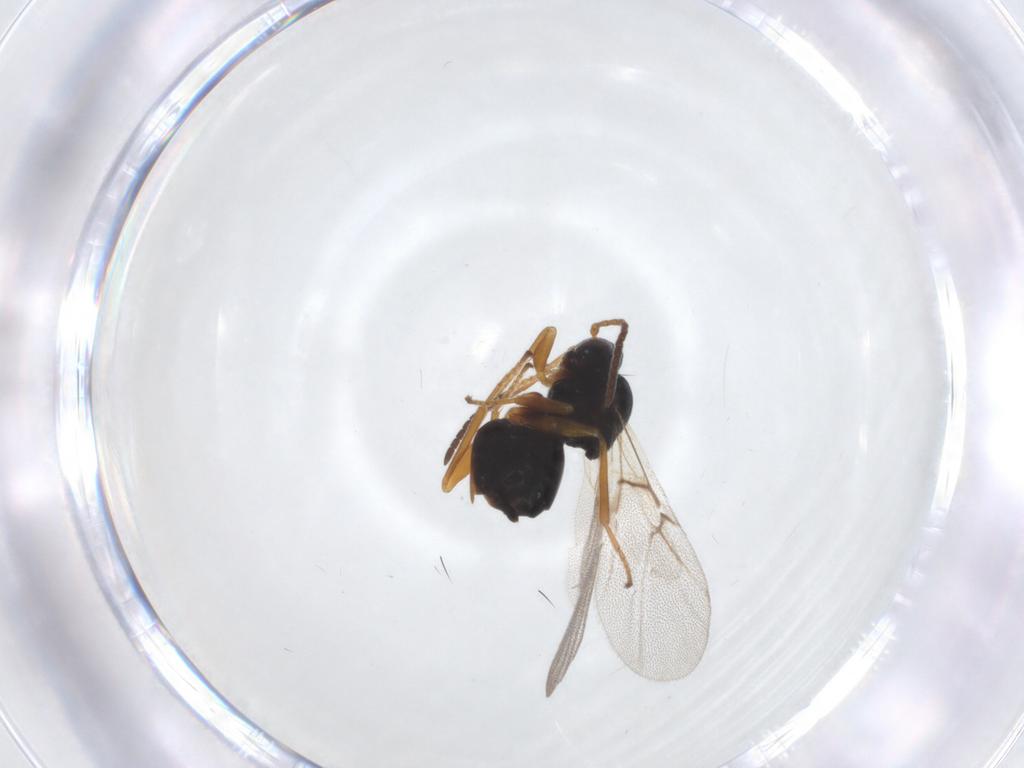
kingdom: Animalia
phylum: Arthropoda
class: Insecta
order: Hymenoptera
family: Cynipidae
